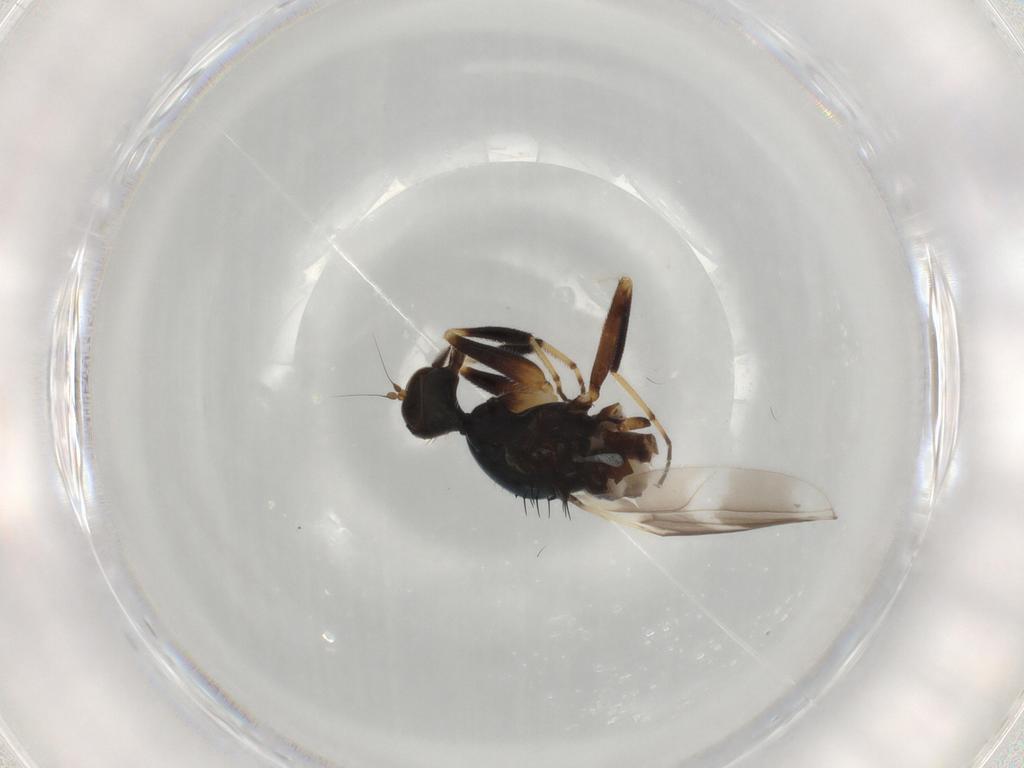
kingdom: Animalia
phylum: Arthropoda
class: Insecta
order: Diptera
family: Hybotidae
